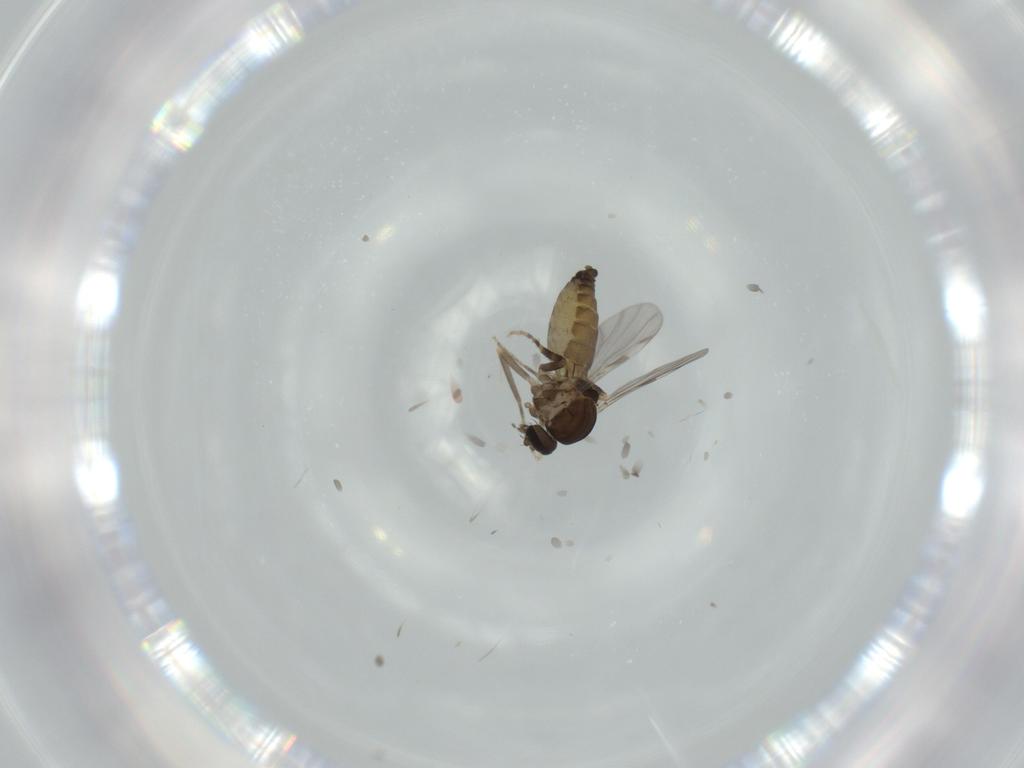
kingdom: Animalia
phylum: Arthropoda
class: Insecta
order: Diptera
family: Ceratopogonidae
